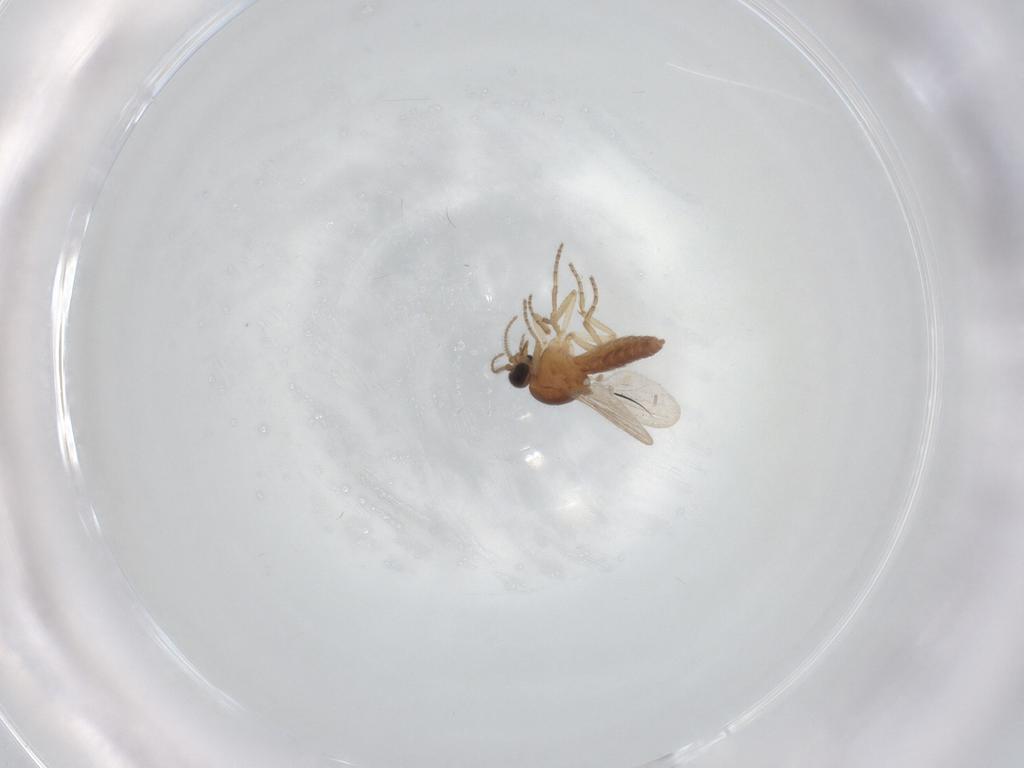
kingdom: Animalia
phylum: Arthropoda
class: Insecta
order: Diptera
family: Ceratopogonidae
